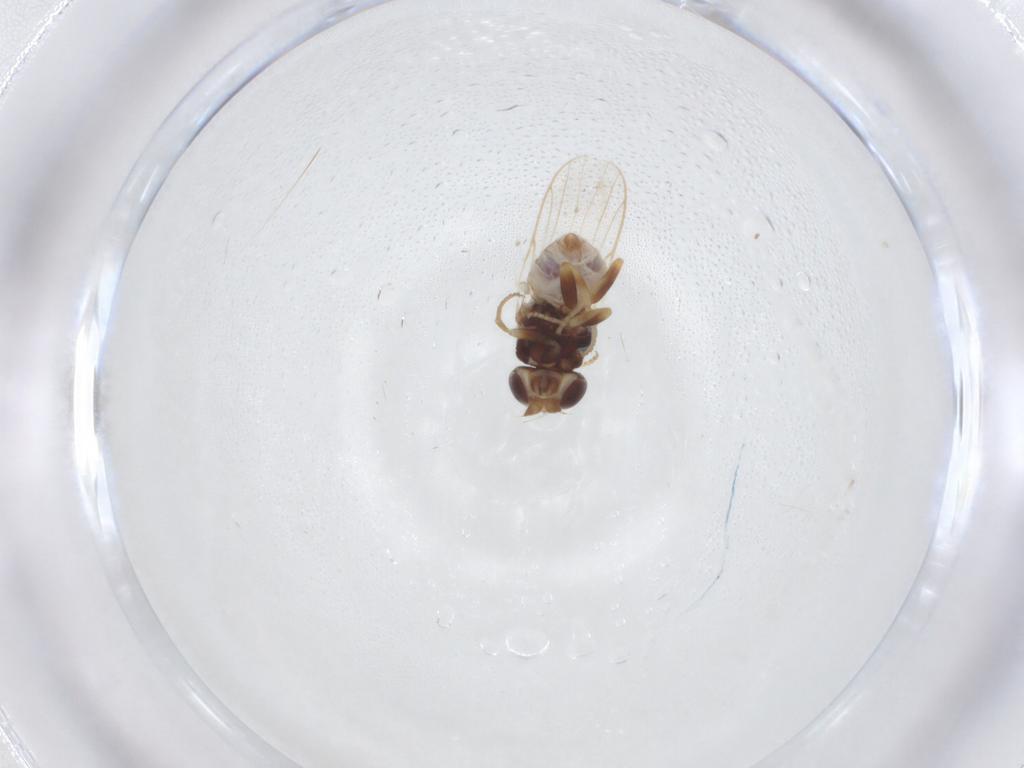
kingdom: Animalia
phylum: Arthropoda
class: Insecta
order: Diptera
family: Chloropidae
